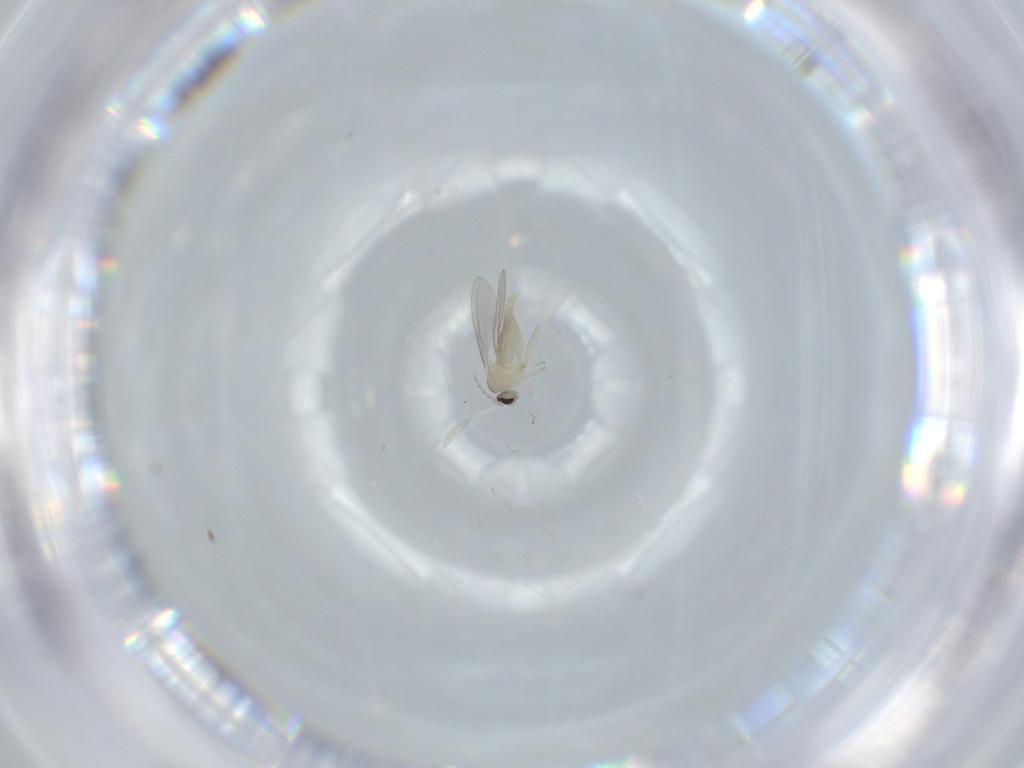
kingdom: Animalia
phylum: Arthropoda
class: Insecta
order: Diptera
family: Cecidomyiidae
